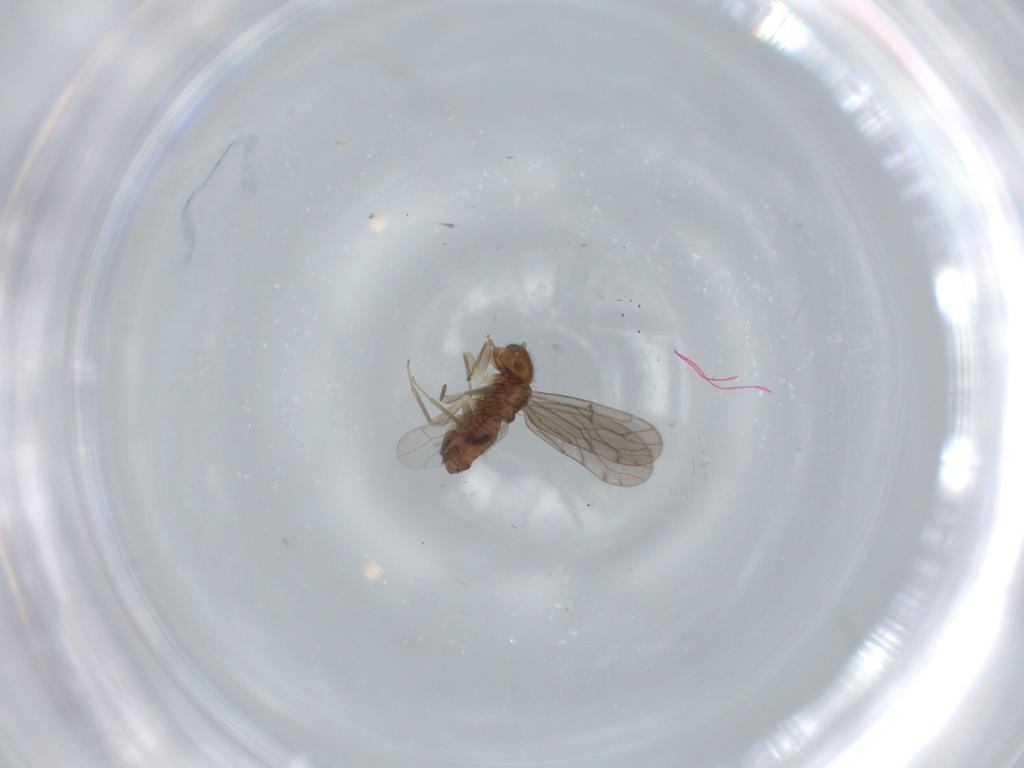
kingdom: Animalia
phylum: Arthropoda
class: Insecta
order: Psocodea
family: Ectopsocidae
